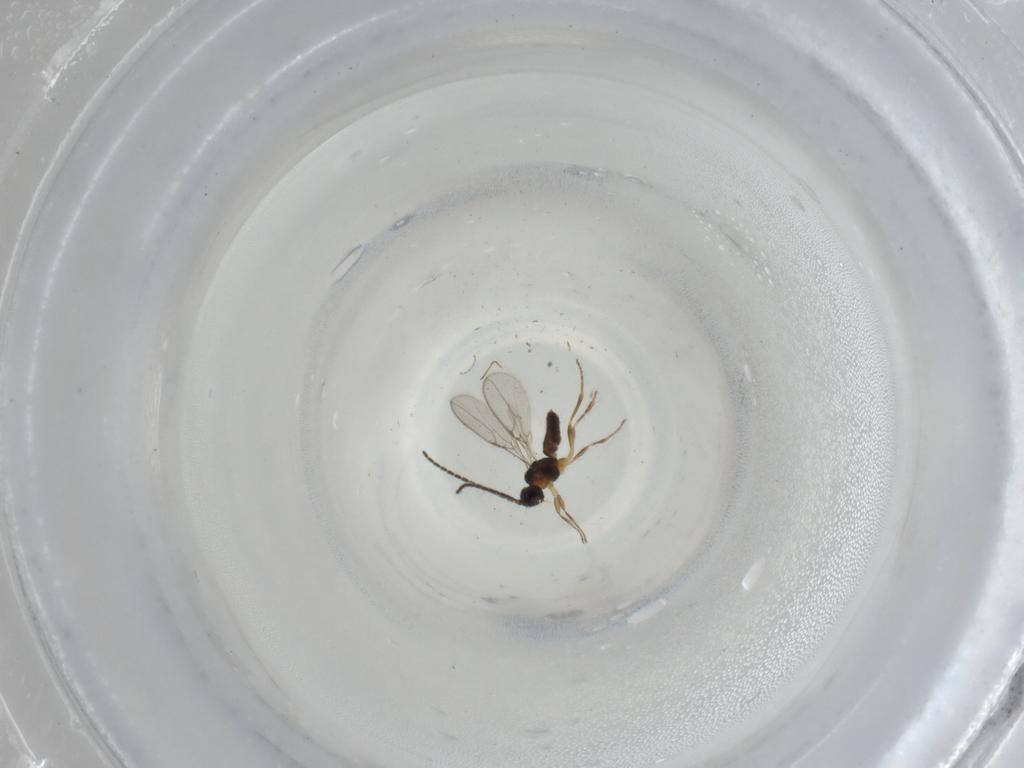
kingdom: Animalia
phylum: Arthropoda
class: Insecta
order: Hymenoptera
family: Braconidae
